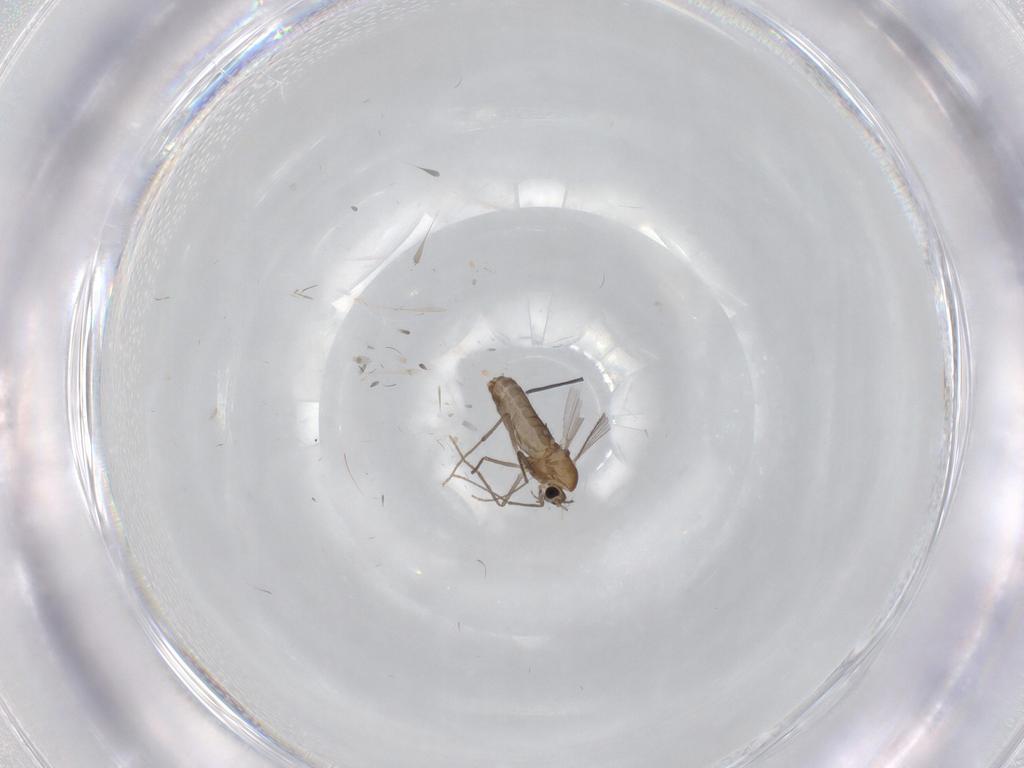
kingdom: Animalia
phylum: Arthropoda
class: Insecta
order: Diptera
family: Chironomidae
